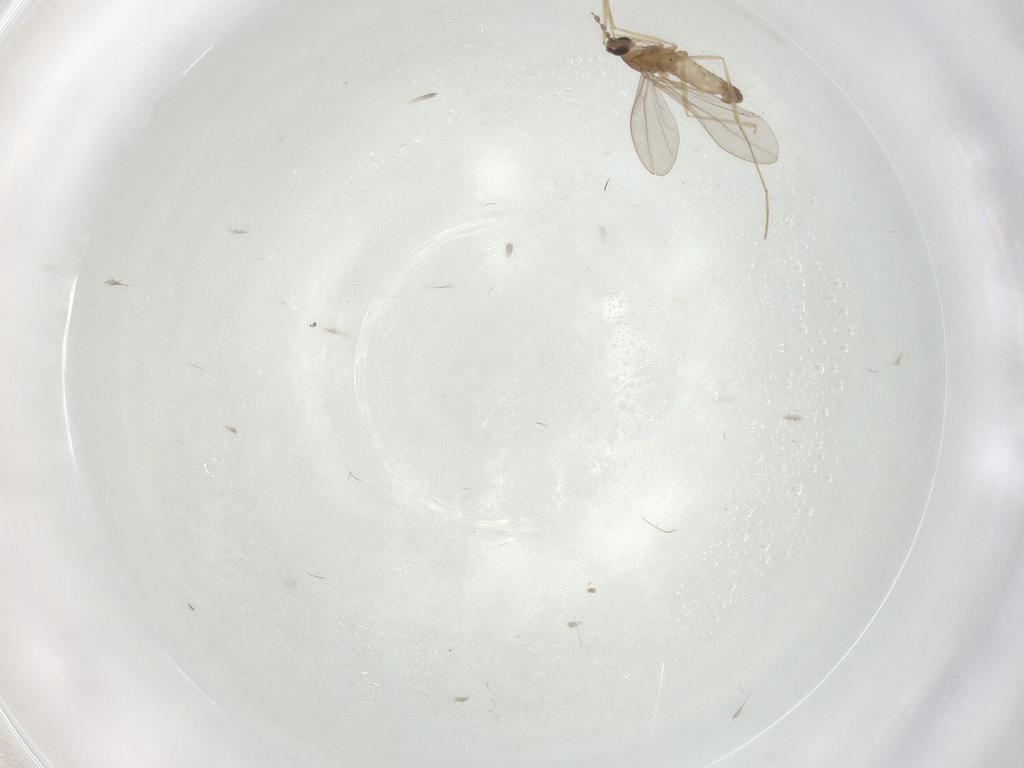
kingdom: Animalia
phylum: Arthropoda
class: Insecta
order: Diptera
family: Cecidomyiidae
